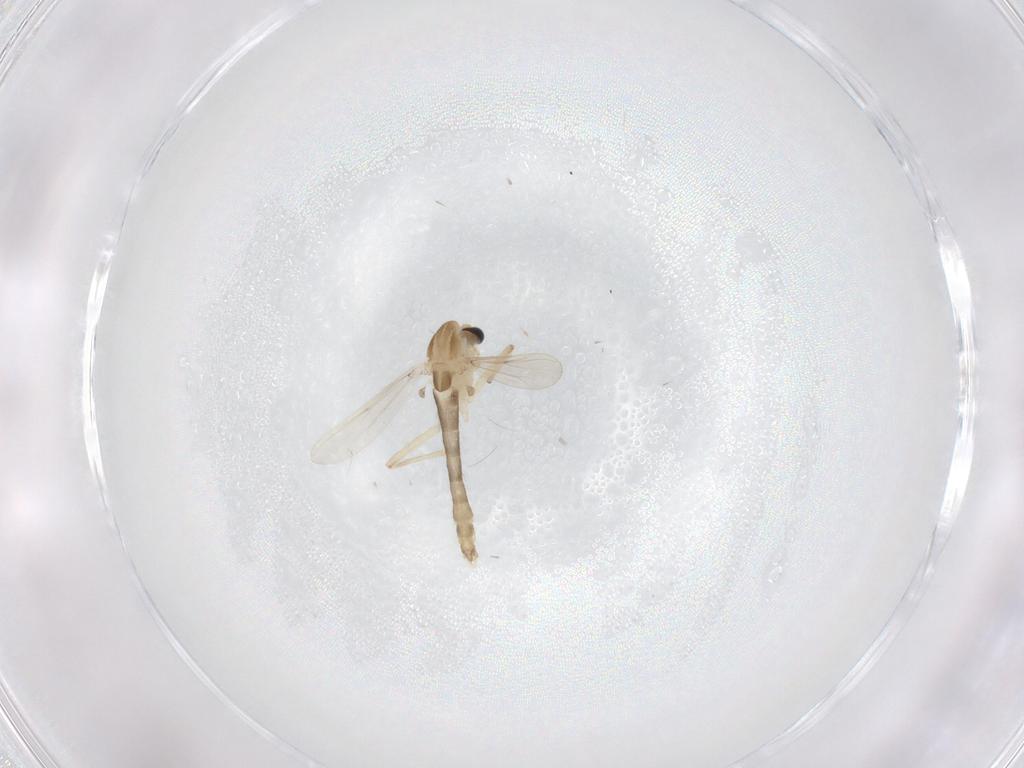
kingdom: Animalia
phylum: Arthropoda
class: Insecta
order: Diptera
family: Chironomidae
